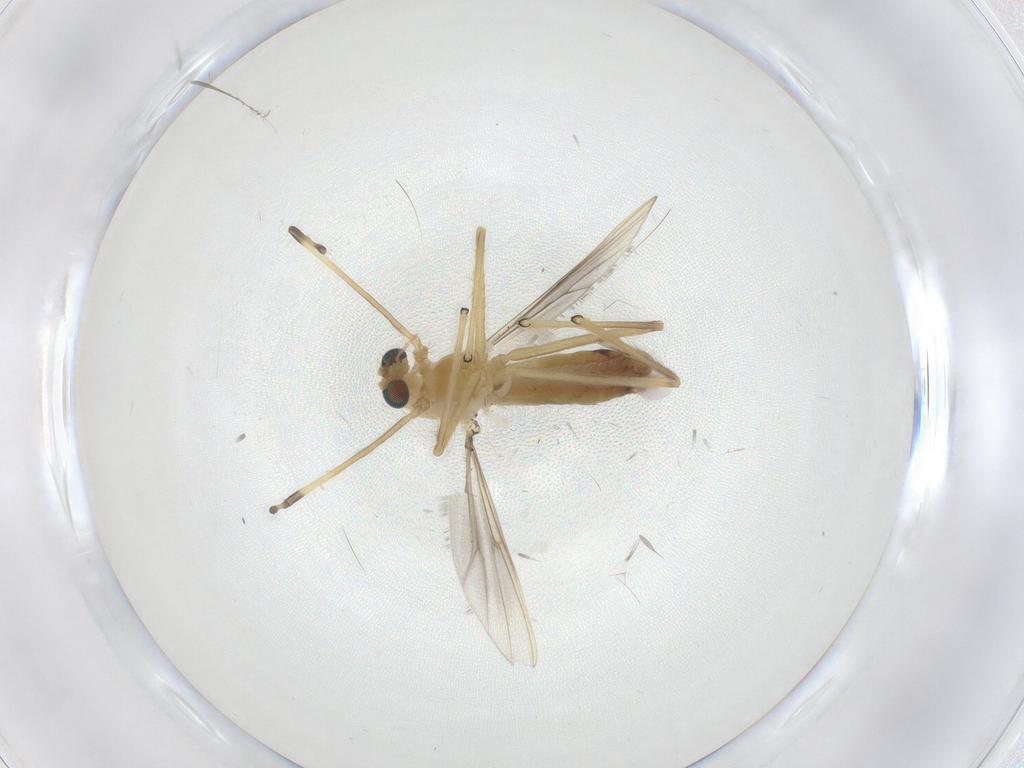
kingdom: Animalia
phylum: Arthropoda
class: Insecta
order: Diptera
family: Chironomidae
